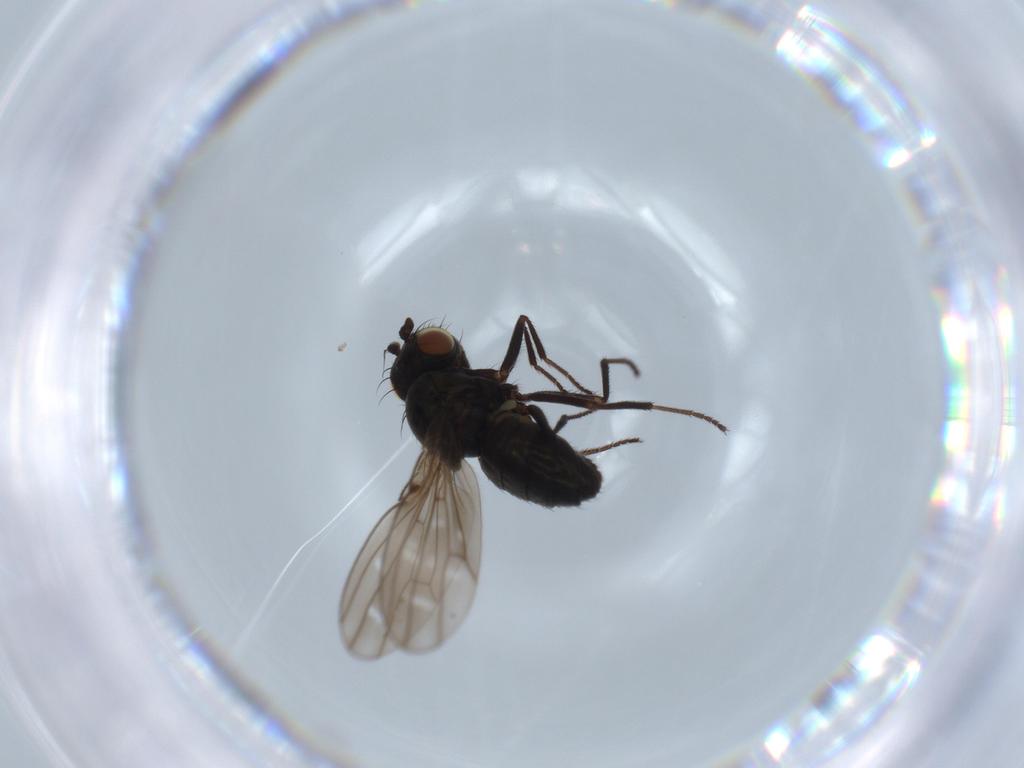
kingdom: Animalia
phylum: Arthropoda
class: Insecta
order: Diptera
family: Ephydridae
